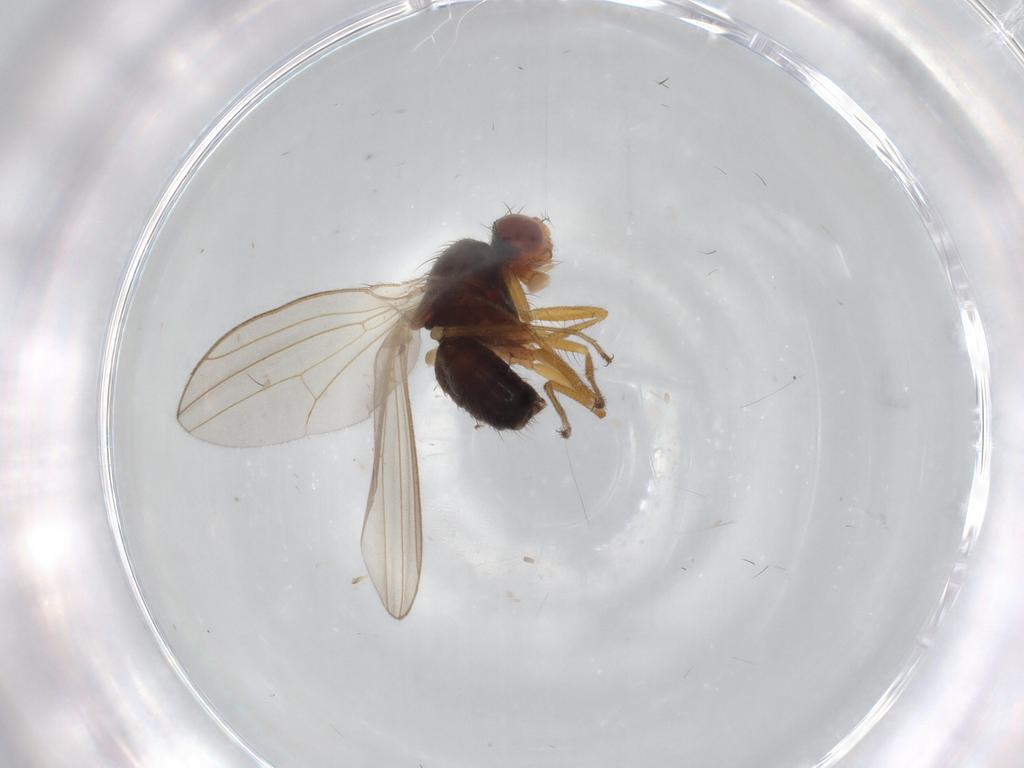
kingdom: Animalia
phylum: Arthropoda
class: Insecta
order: Diptera
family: Drosophilidae
